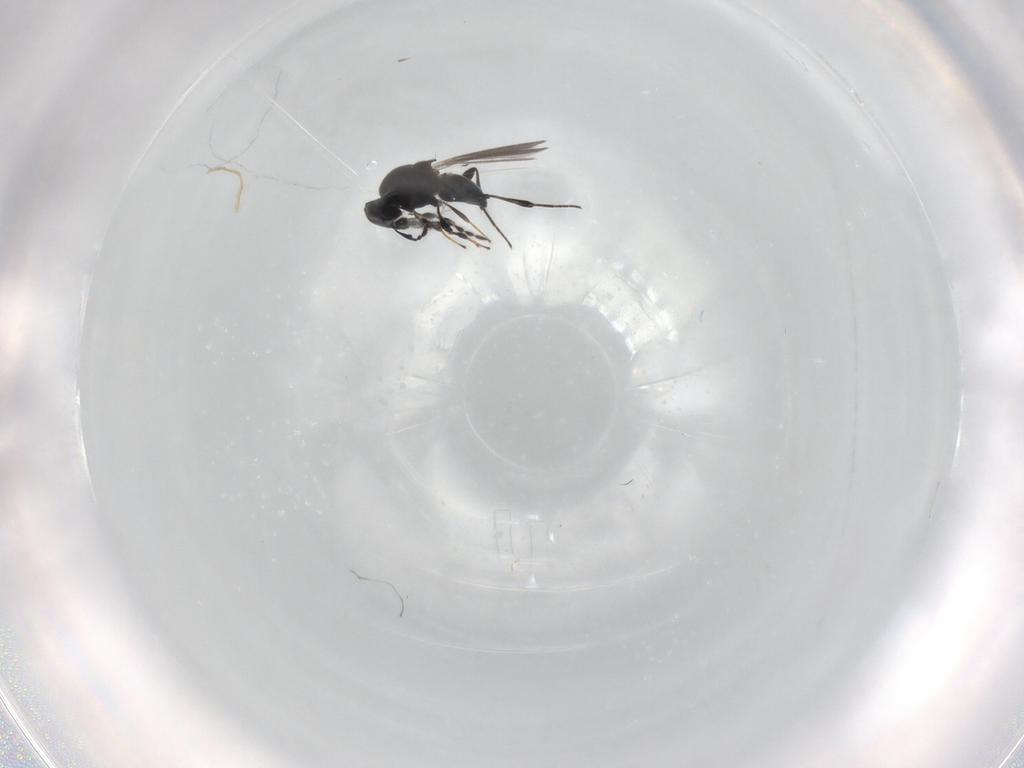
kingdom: Animalia
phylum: Arthropoda
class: Insecta
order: Hymenoptera
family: Platygastridae
